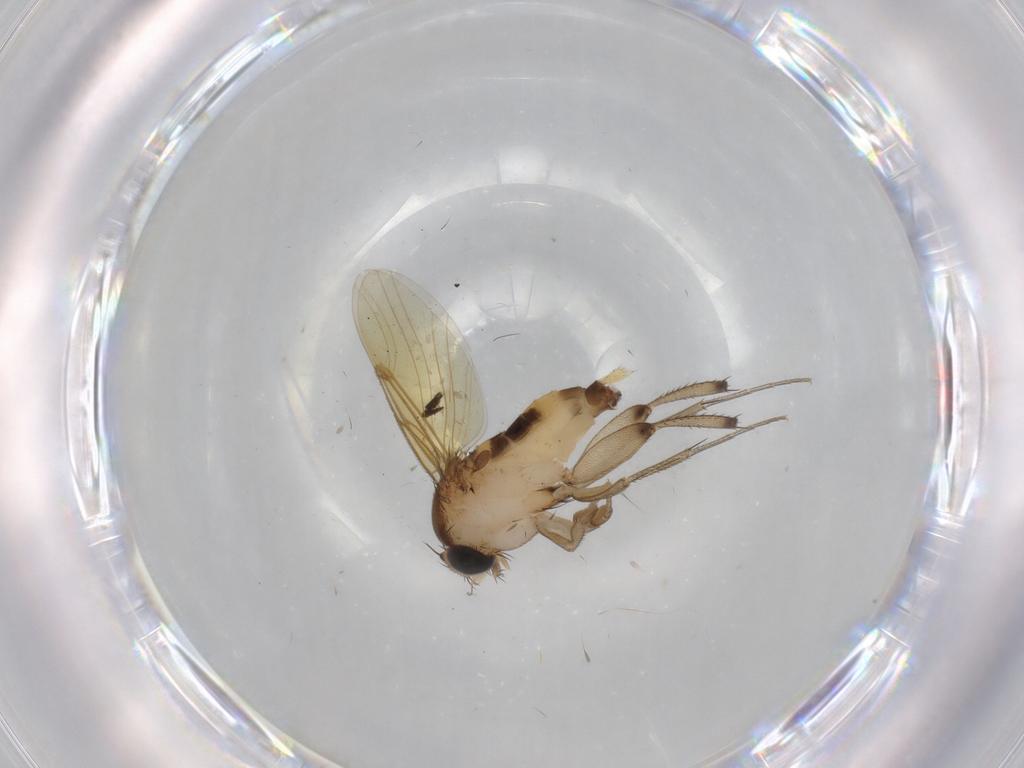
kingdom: Animalia
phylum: Arthropoda
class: Insecta
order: Diptera
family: Phoridae
